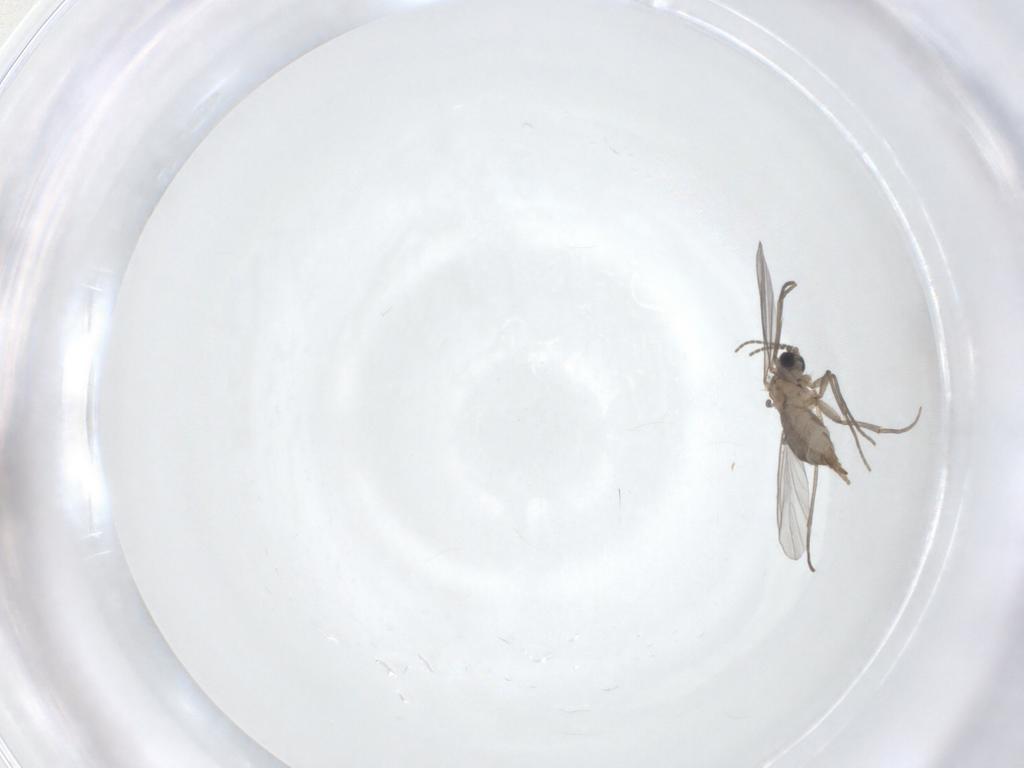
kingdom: Animalia
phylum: Arthropoda
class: Insecta
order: Diptera
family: Sciaridae
